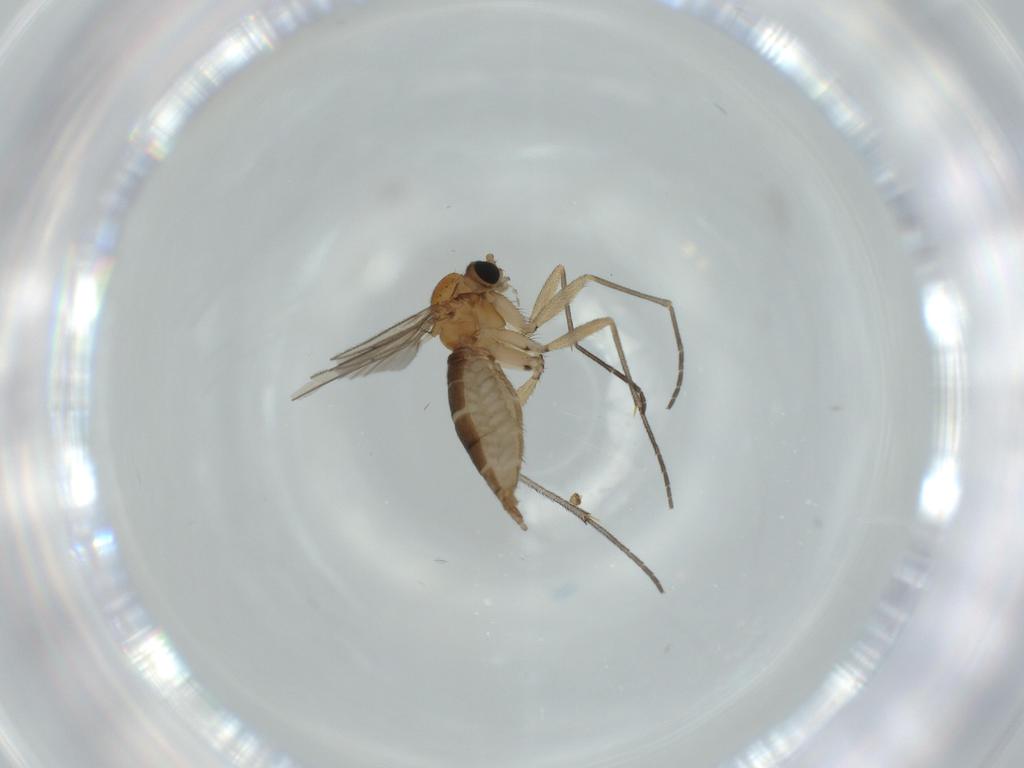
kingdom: Animalia
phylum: Arthropoda
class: Insecta
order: Diptera
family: Sciaridae
